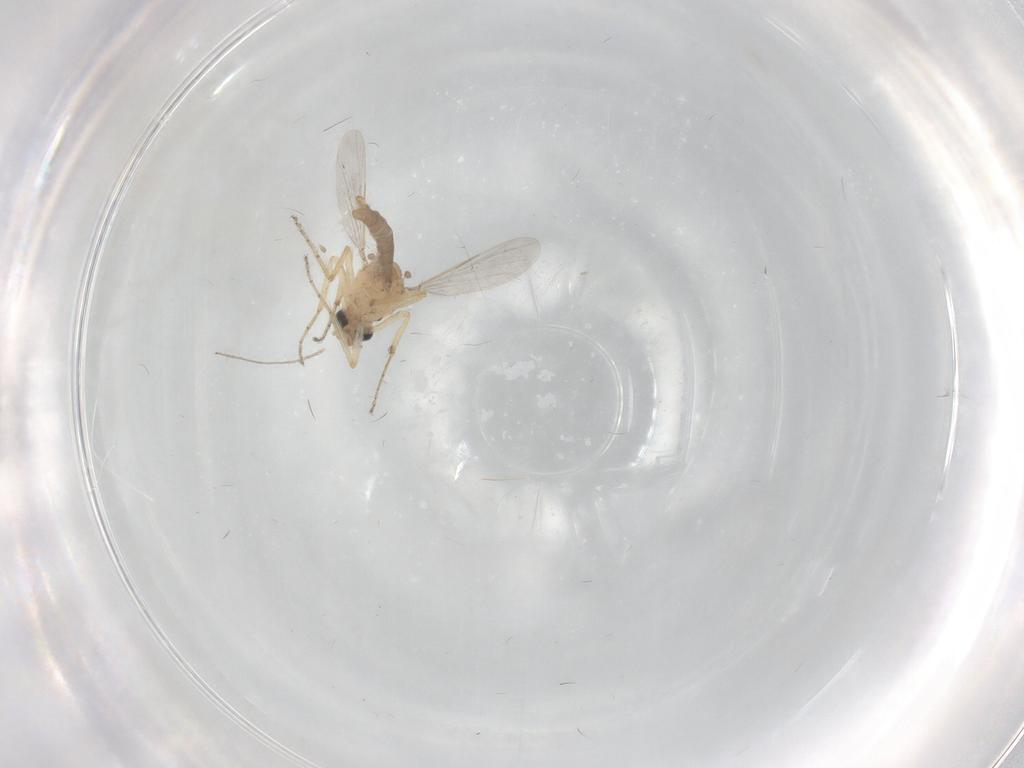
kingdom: Animalia
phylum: Arthropoda
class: Insecta
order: Diptera
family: Ceratopogonidae
